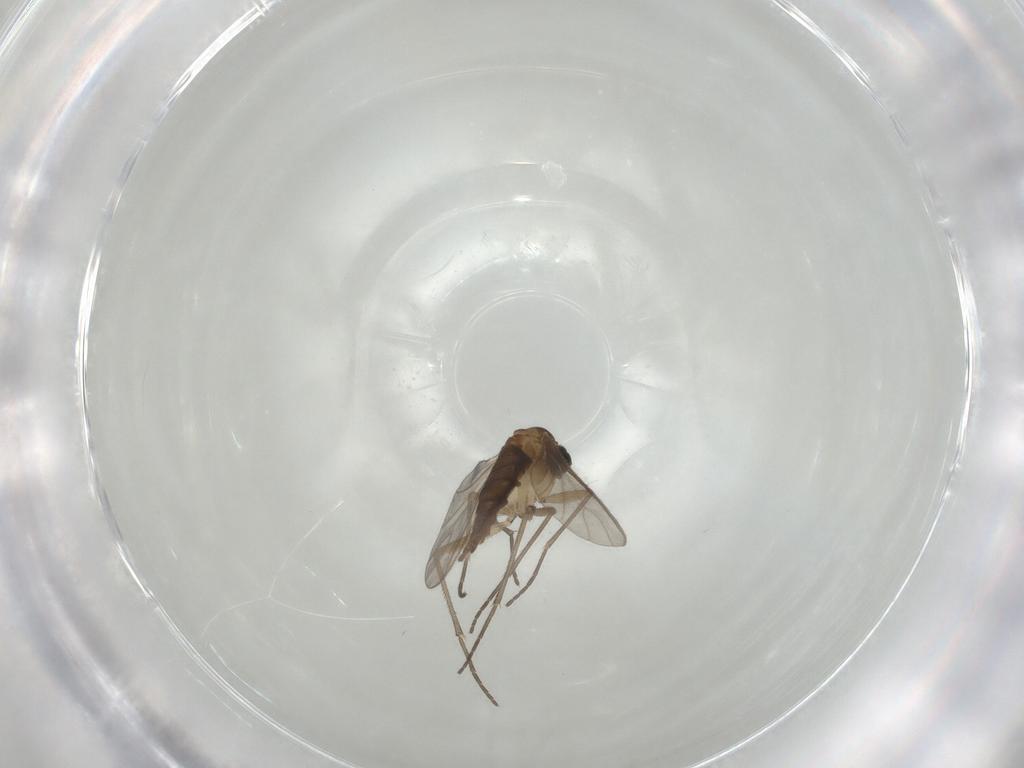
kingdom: Animalia
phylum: Arthropoda
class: Insecta
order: Diptera
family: Sciaridae
